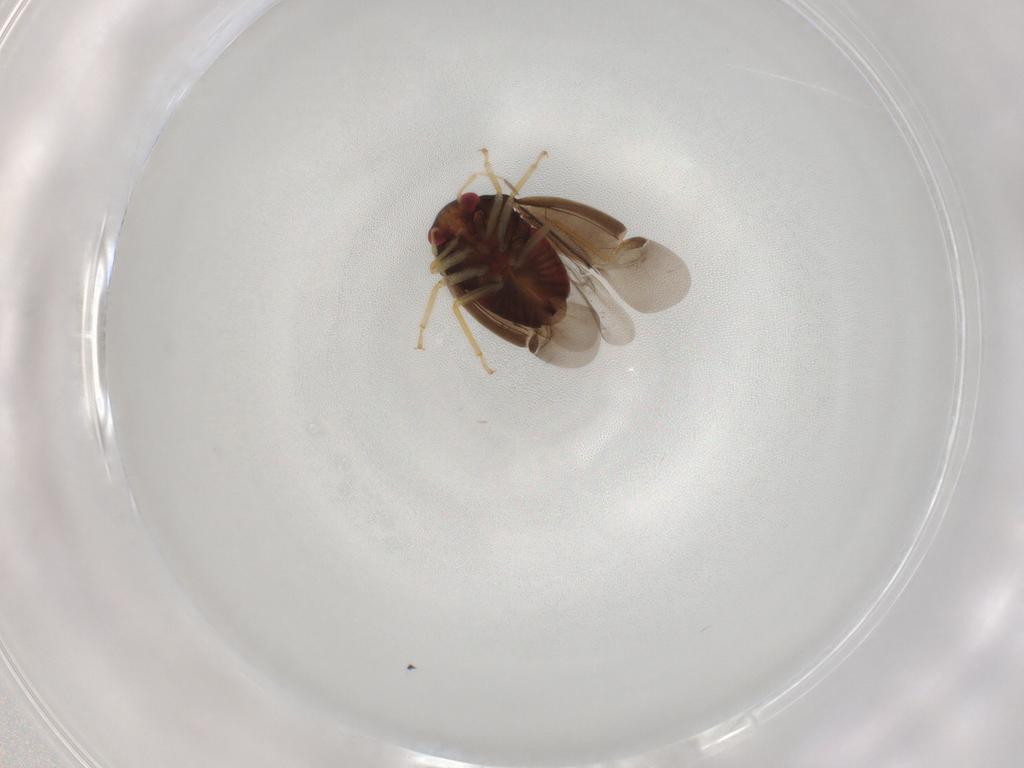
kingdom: Animalia
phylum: Arthropoda
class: Insecta
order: Hemiptera
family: Miridae
